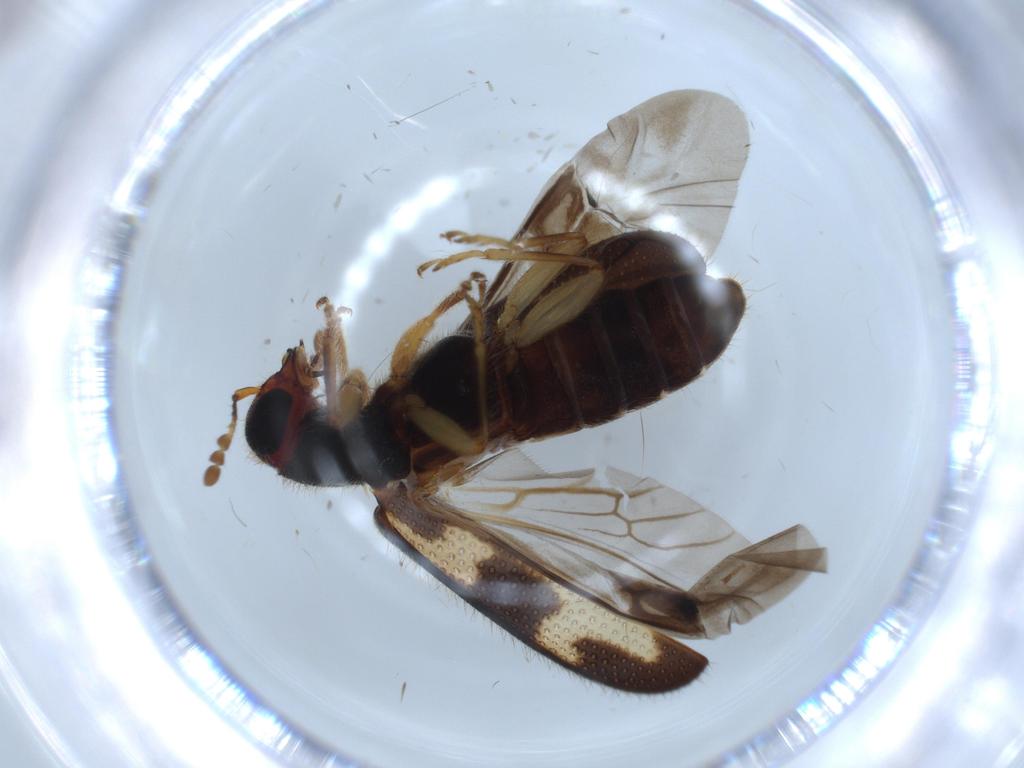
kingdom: Animalia
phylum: Arthropoda
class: Insecta
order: Coleoptera
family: Cleridae
